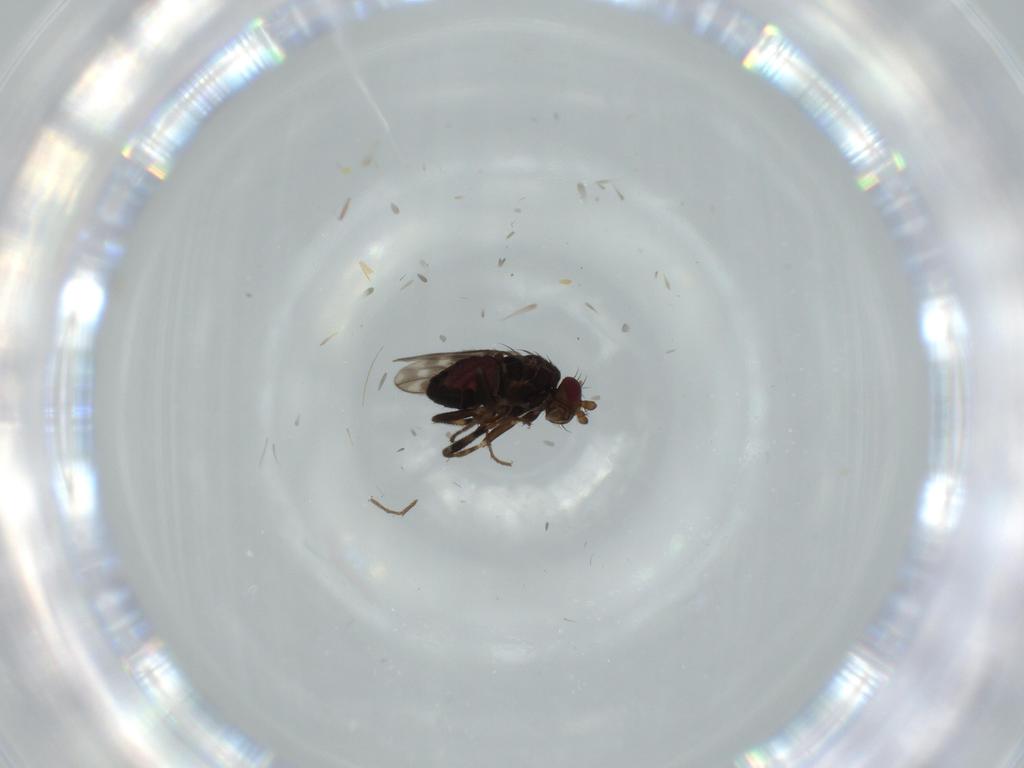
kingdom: Animalia
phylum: Arthropoda
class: Insecta
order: Diptera
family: Sphaeroceridae
